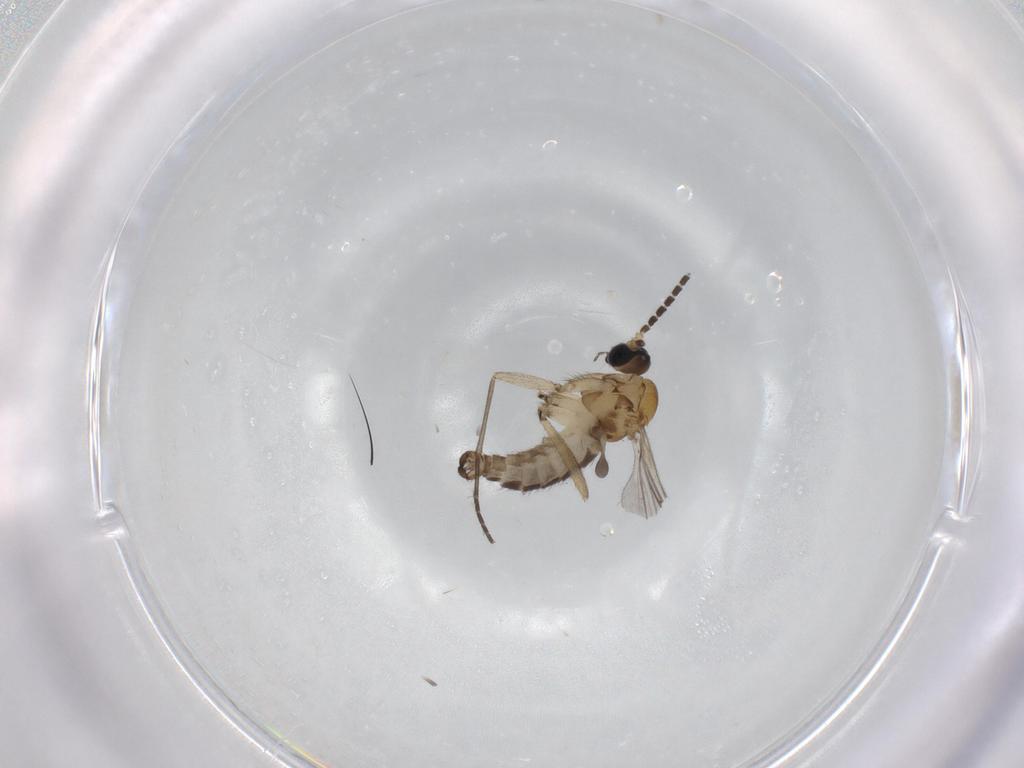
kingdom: Animalia
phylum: Arthropoda
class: Insecta
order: Diptera
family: Sciaridae
